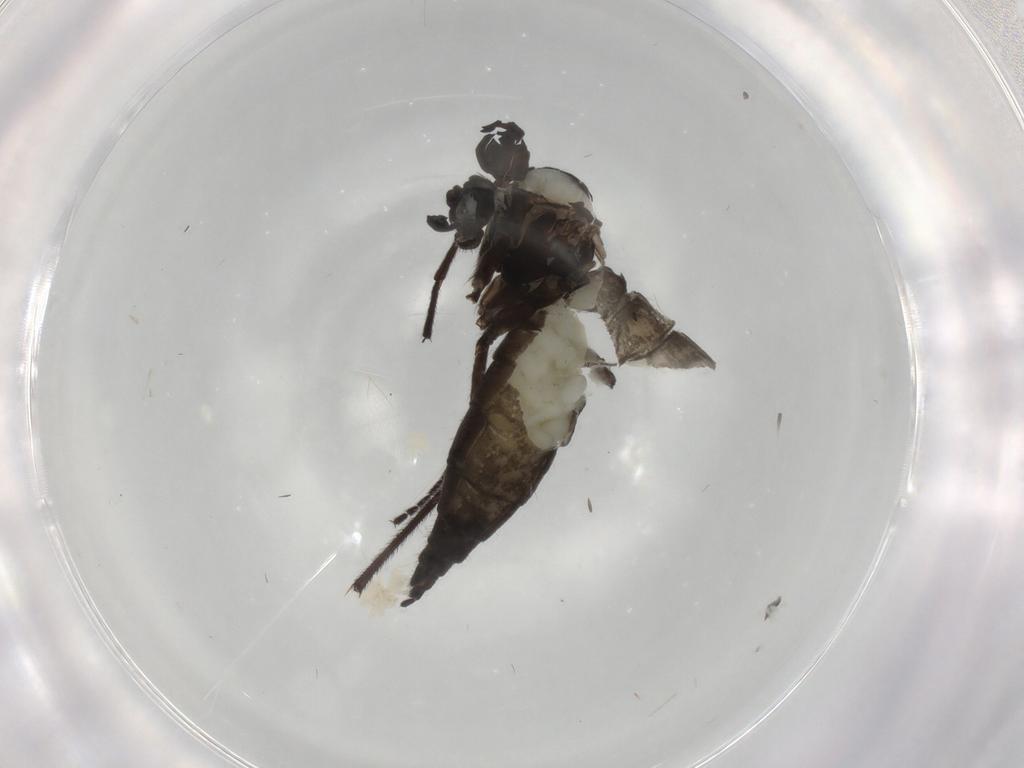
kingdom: Animalia
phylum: Arthropoda
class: Insecta
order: Diptera
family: Sciaridae
